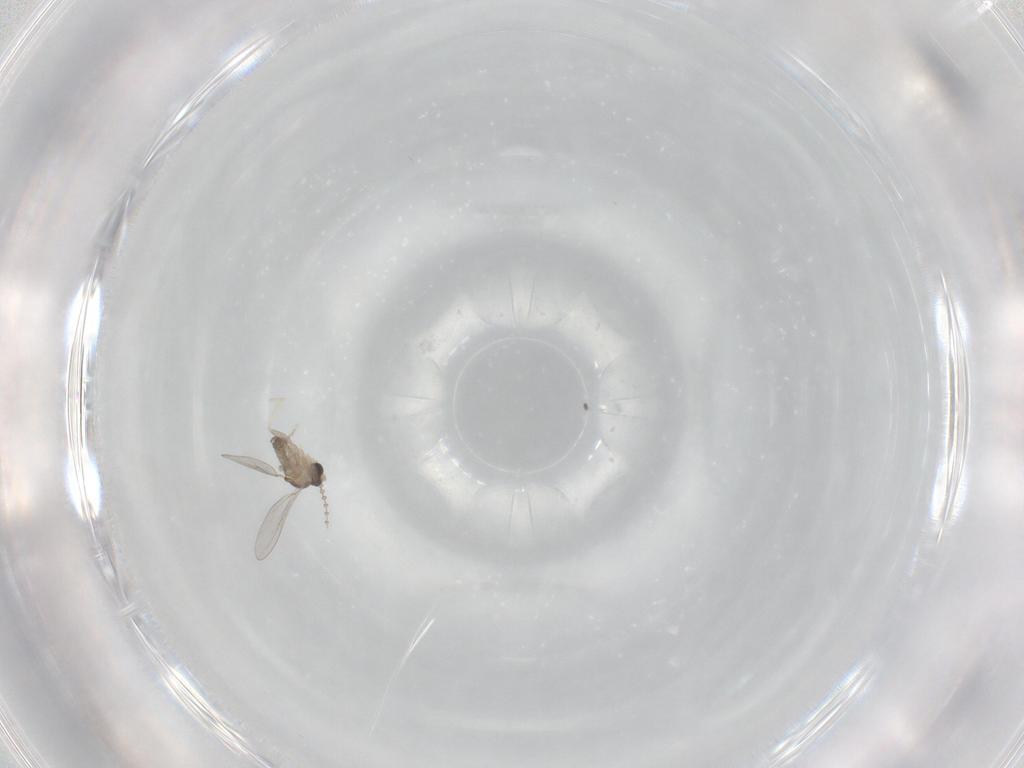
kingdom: Animalia
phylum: Arthropoda
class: Insecta
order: Diptera
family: Cecidomyiidae
